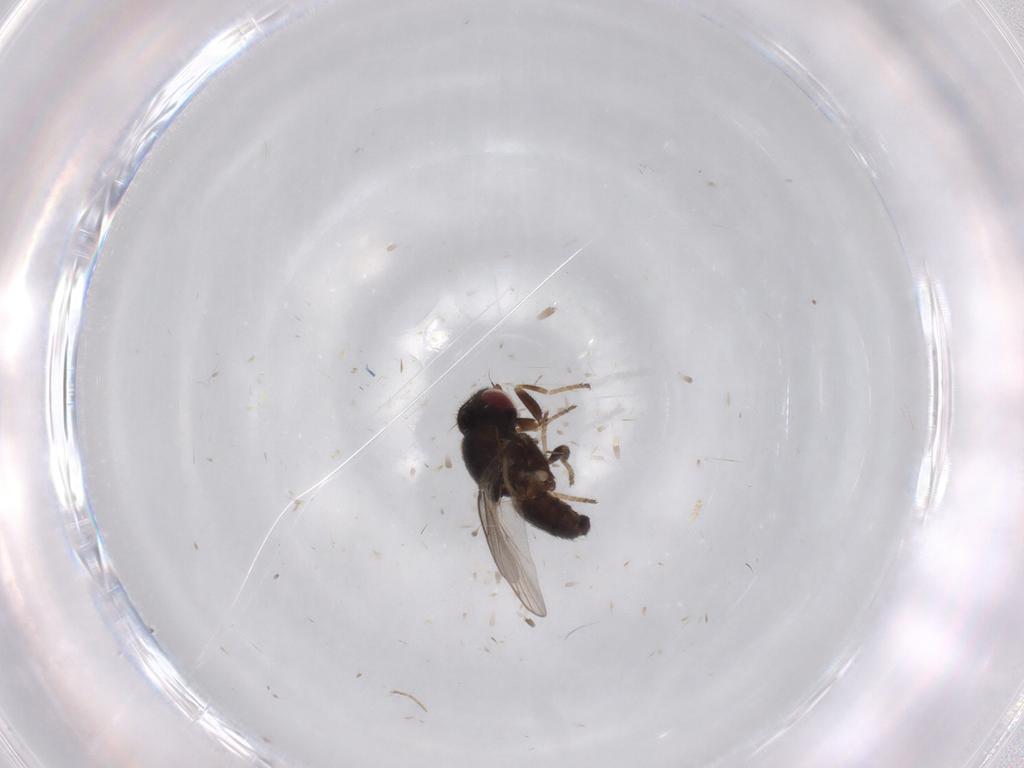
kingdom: Animalia
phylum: Arthropoda
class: Insecta
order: Diptera
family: Chloropidae
